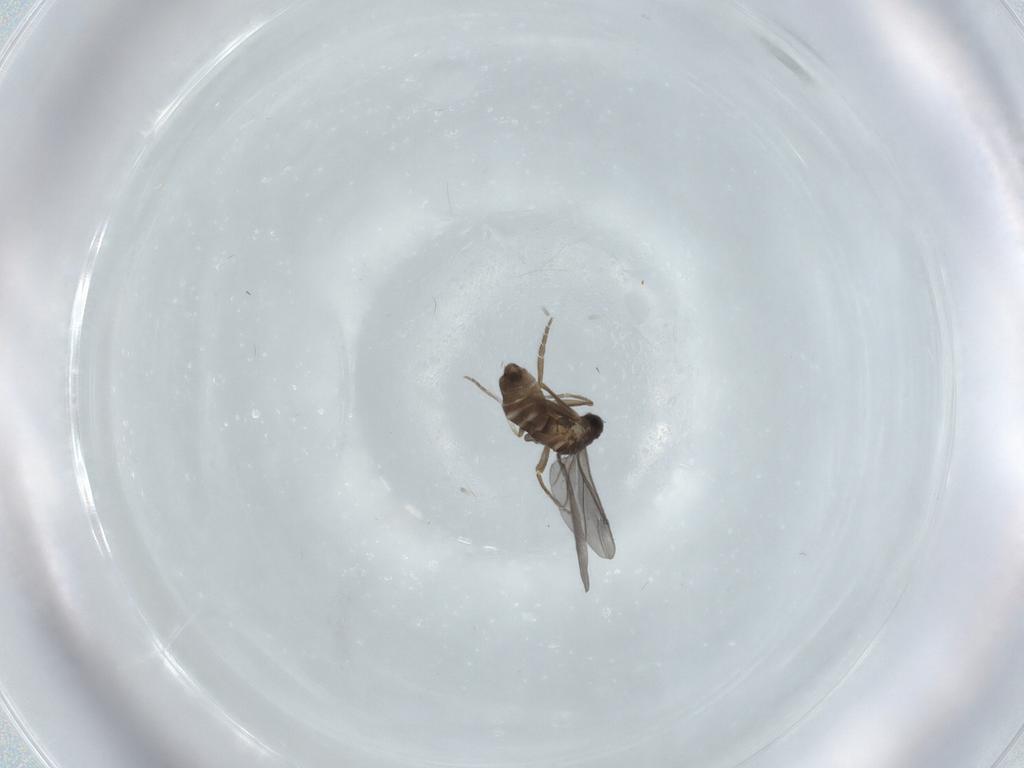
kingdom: Animalia
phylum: Arthropoda
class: Insecta
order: Diptera
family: Phoridae
